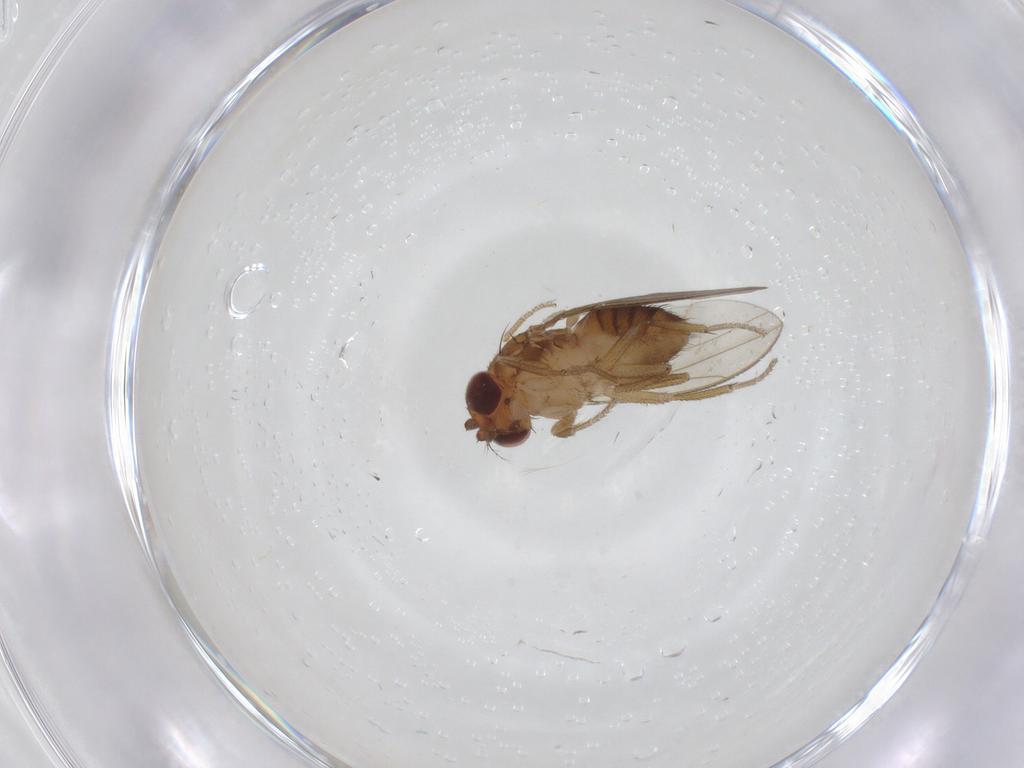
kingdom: Animalia
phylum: Arthropoda
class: Insecta
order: Diptera
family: Drosophilidae
